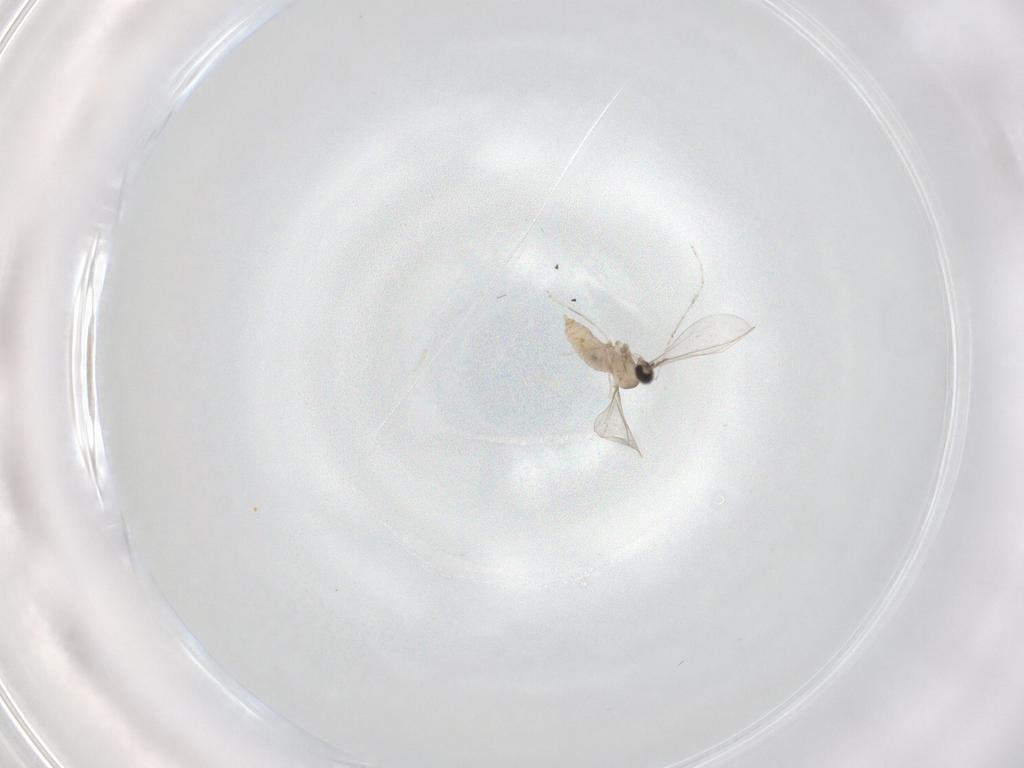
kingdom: Animalia
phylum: Arthropoda
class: Insecta
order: Diptera
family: Cecidomyiidae
